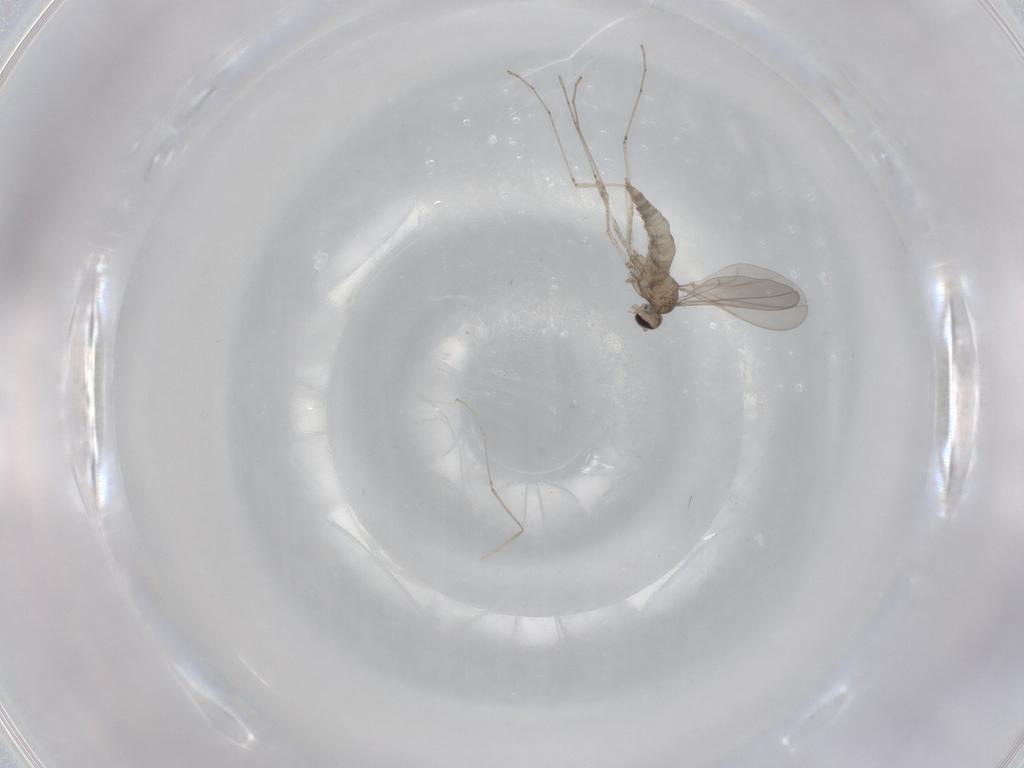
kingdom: Animalia
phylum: Arthropoda
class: Insecta
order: Diptera
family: Cecidomyiidae
